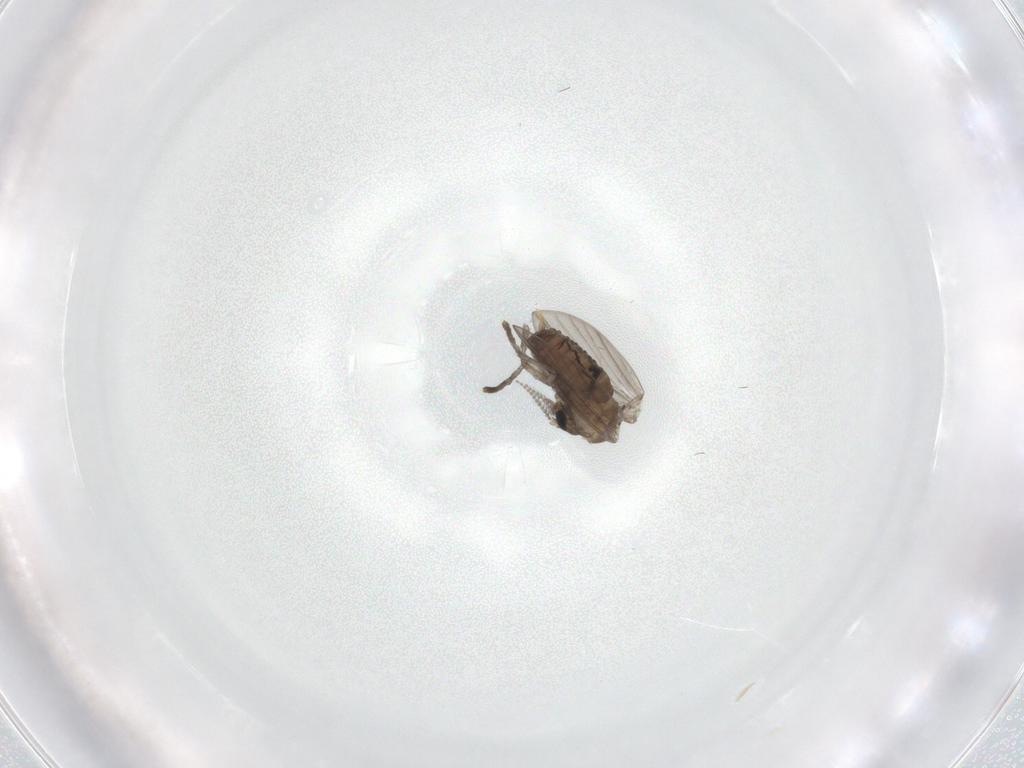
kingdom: Animalia
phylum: Arthropoda
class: Insecta
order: Diptera
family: Psychodidae
